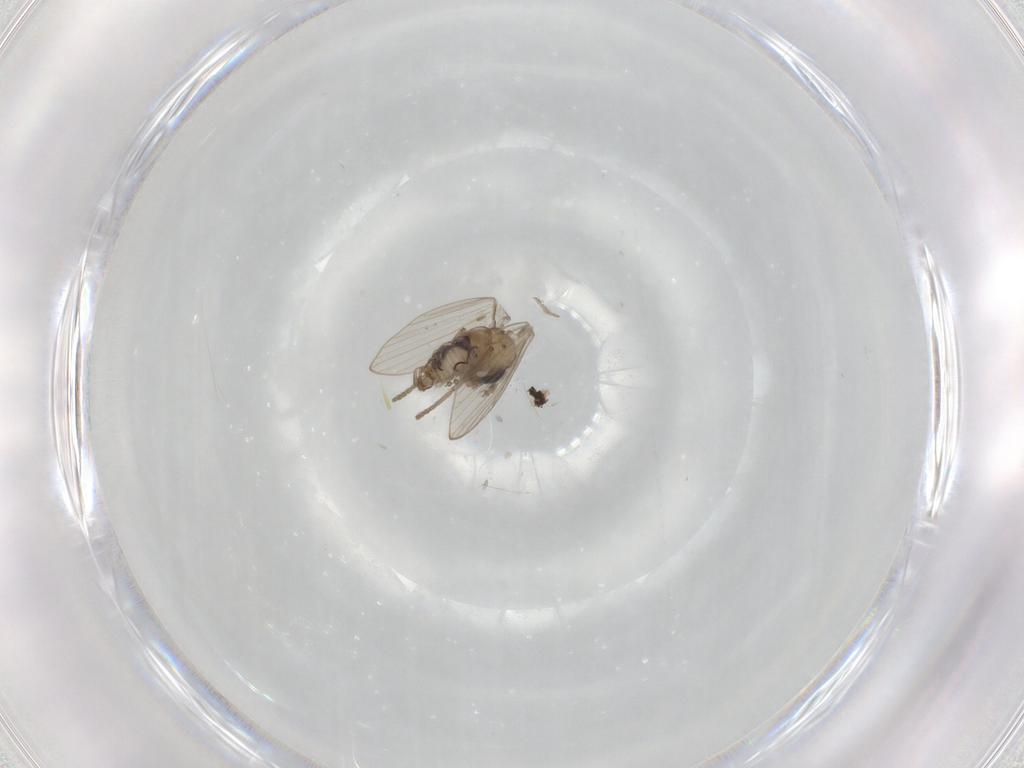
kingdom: Animalia
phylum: Arthropoda
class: Insecta
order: Diptera
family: Psychodidae
